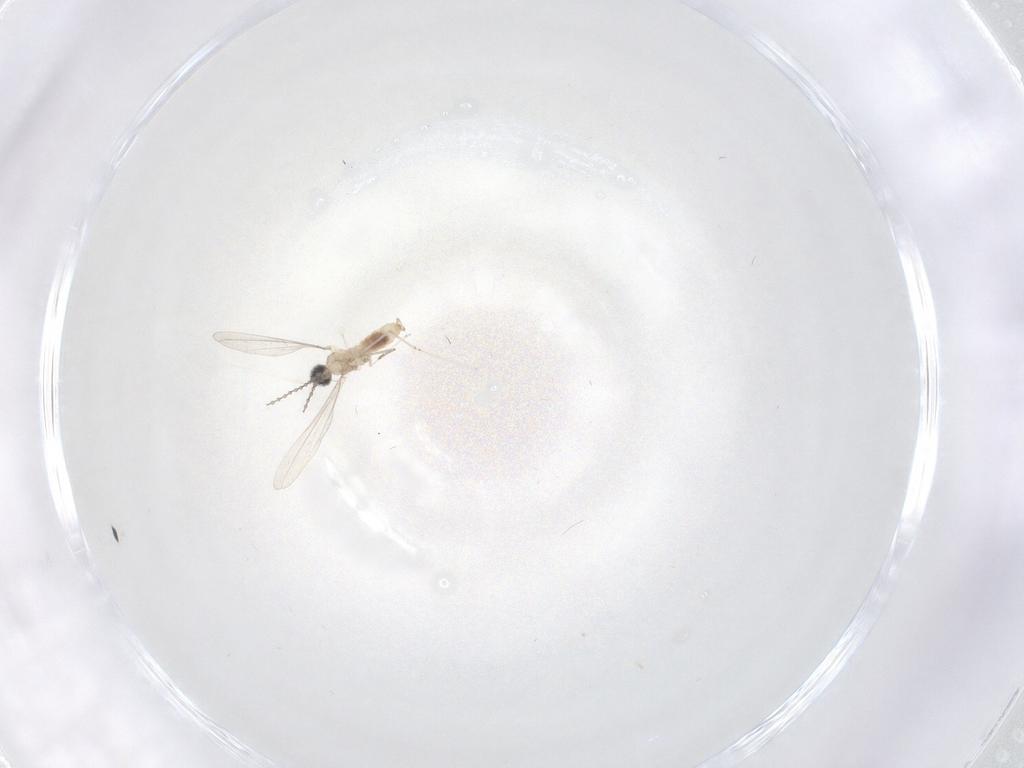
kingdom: Animalia
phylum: Arthropoda
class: Insecta
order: Diptera
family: Cecidomyiidae
